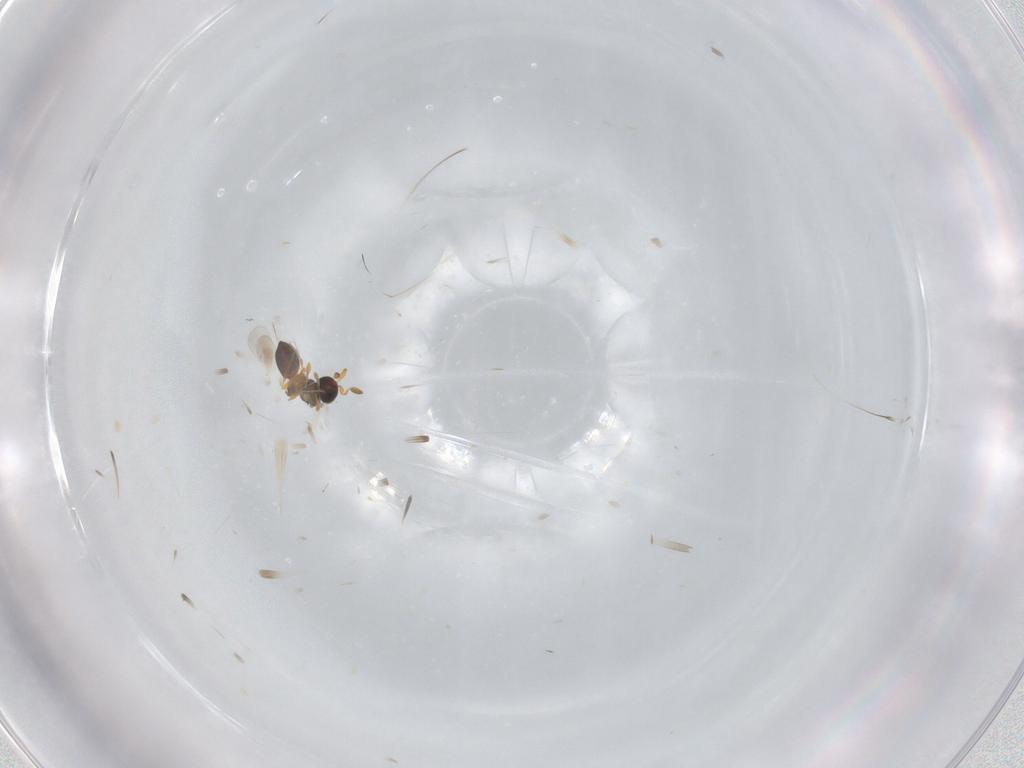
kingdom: Animalia
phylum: Arthropoda
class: Insecta
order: Hymenoptera
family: Platygastridae
